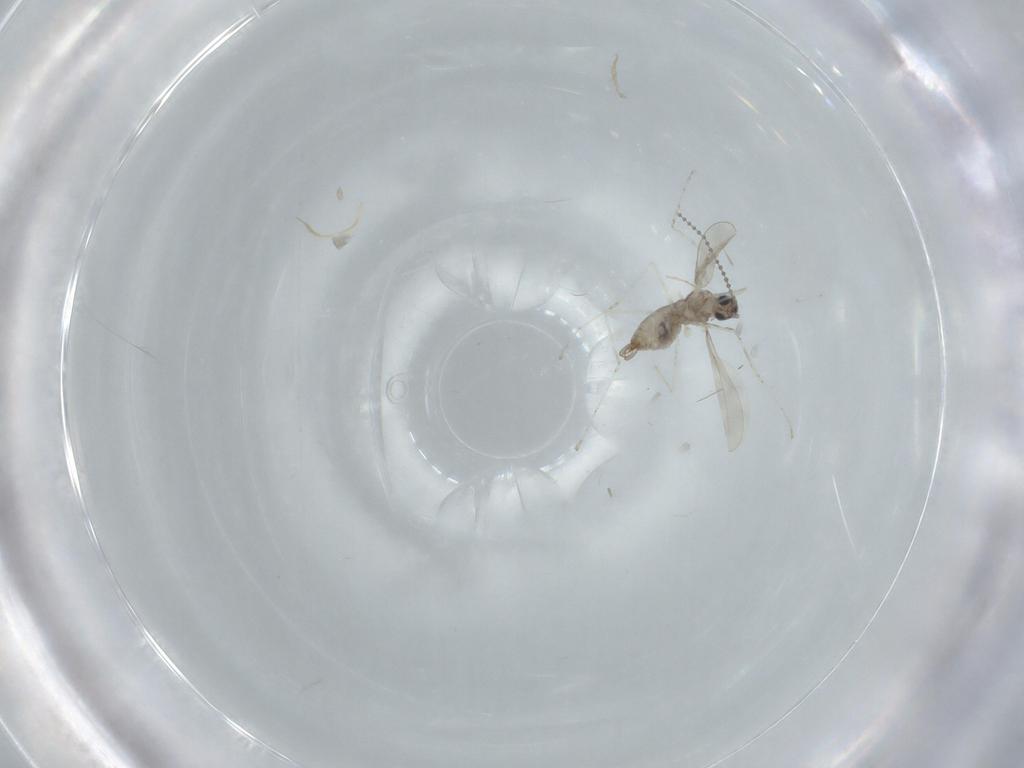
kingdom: Animalia
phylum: Arthropoda
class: Insecta
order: Diptera
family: Cecidomyiidae
